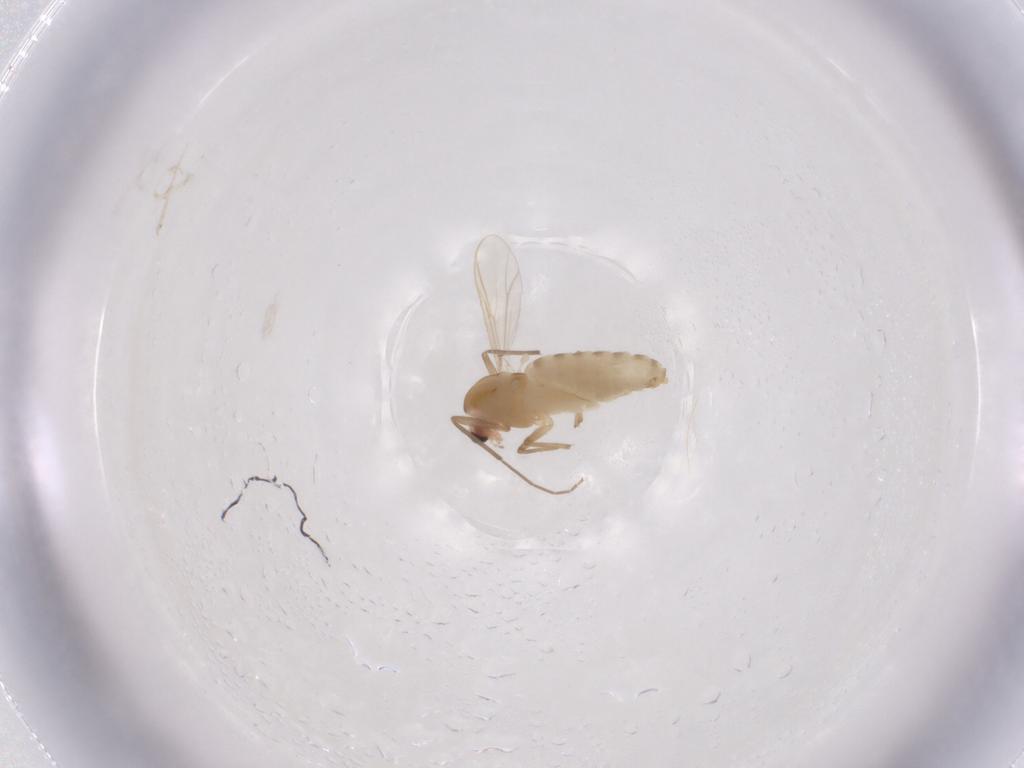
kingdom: Animalia
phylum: Arthropoda
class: Insecta
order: Diptera
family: Chironomidae
